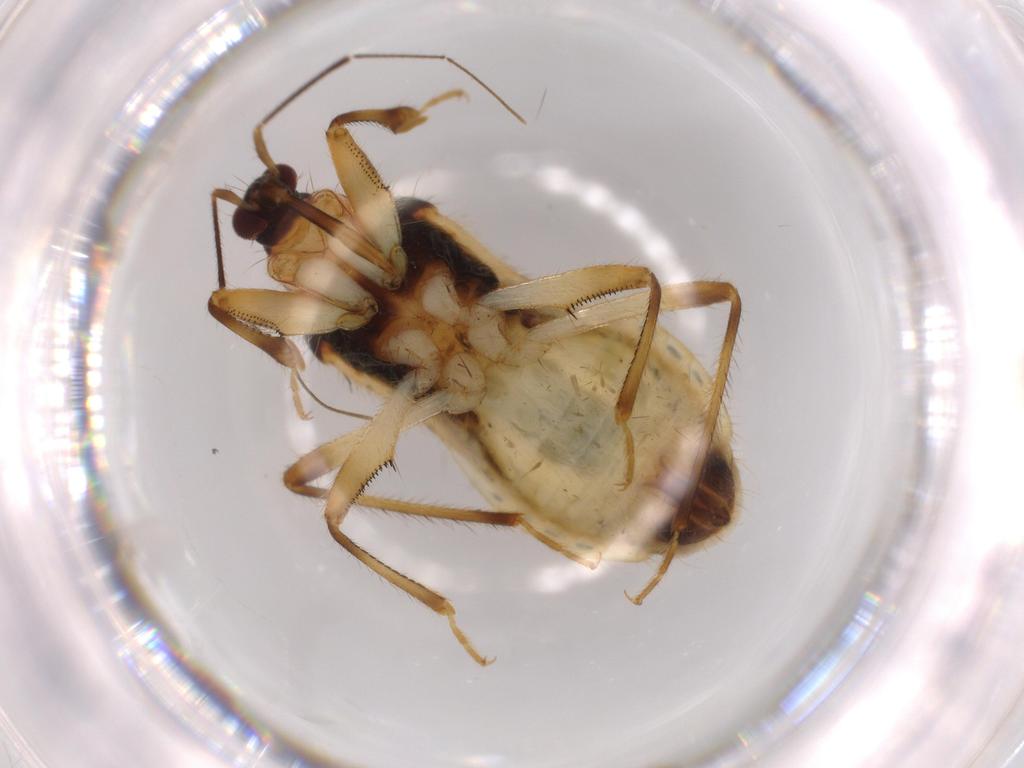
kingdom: Animalia
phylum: Arthropoda
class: Insecta
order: Hemiptera
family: Nabidae
